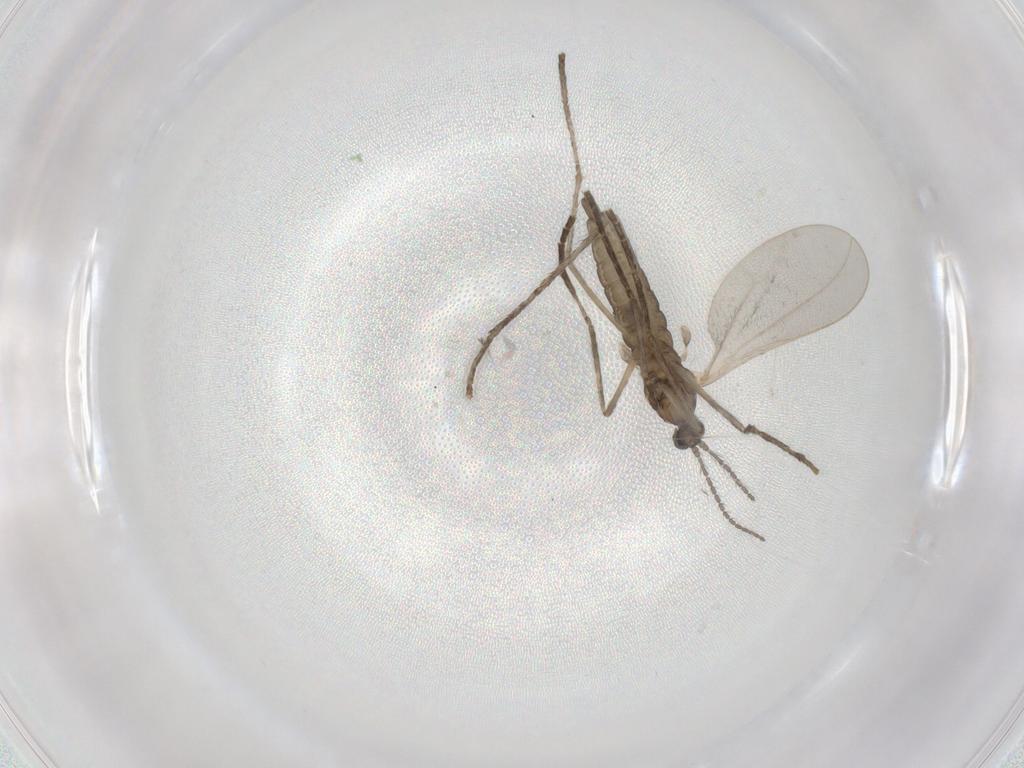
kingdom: Animalia
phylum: Arthropoda
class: Insecta
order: Diptera
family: Cecidomyiidae
